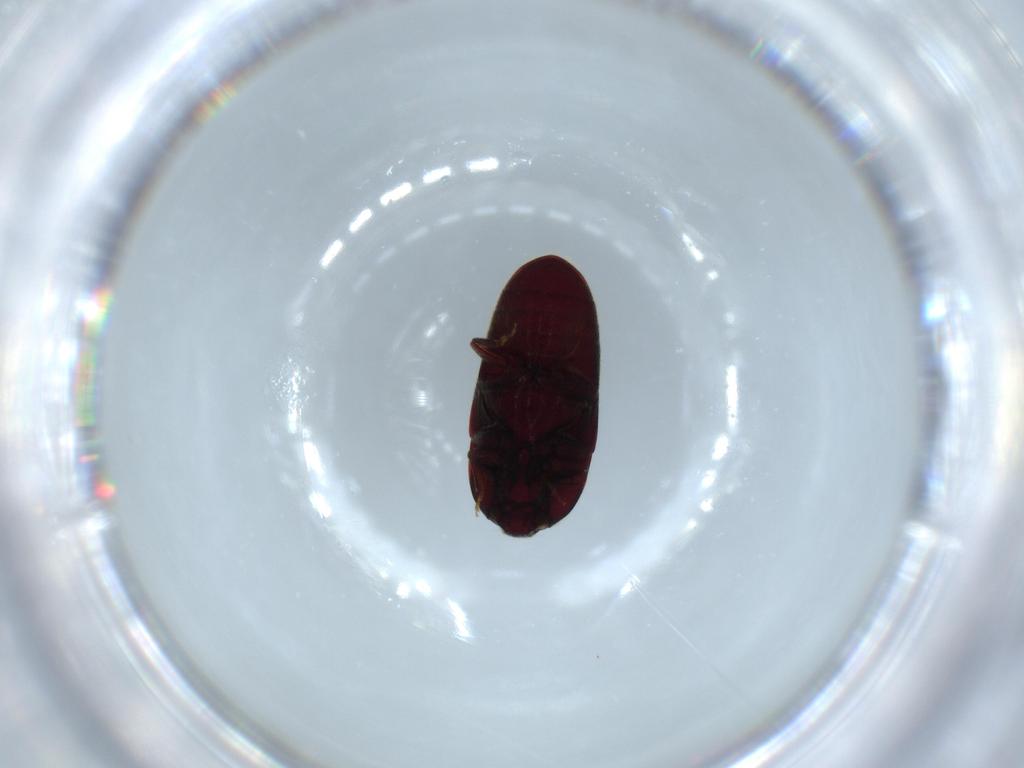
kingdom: Animalia
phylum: Arthropoda
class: Insecta
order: Coleoptera
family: Throscidae
